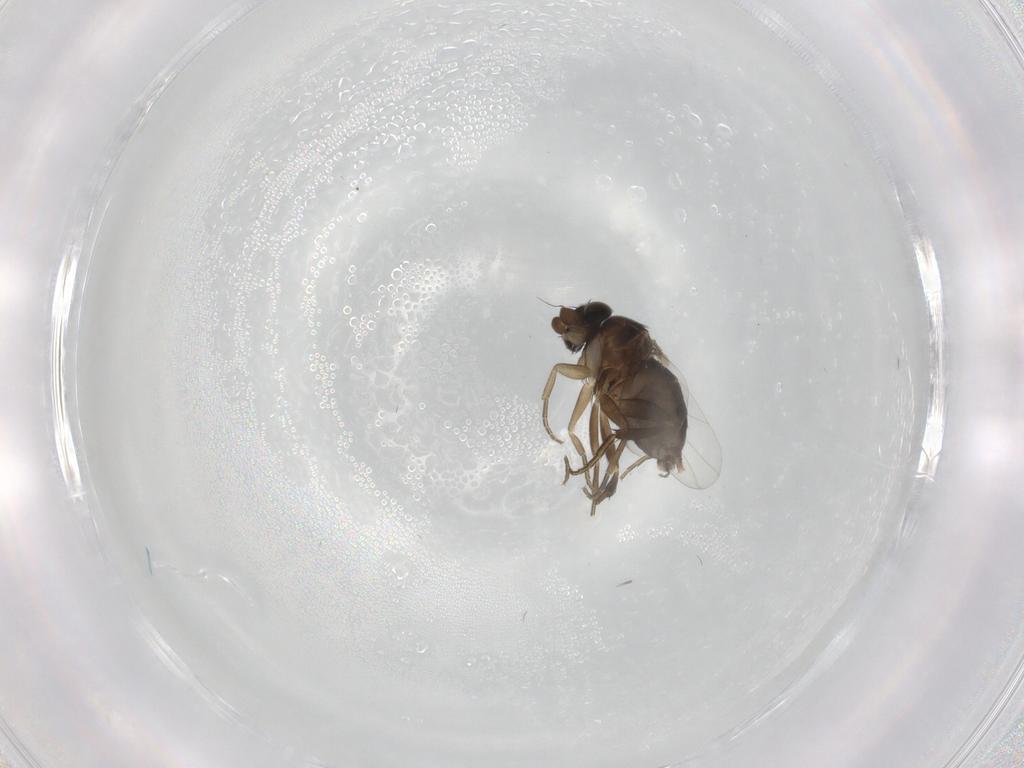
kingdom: Animalia
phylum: Arthropoda
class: Insecta
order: Diptera
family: Phoridae
